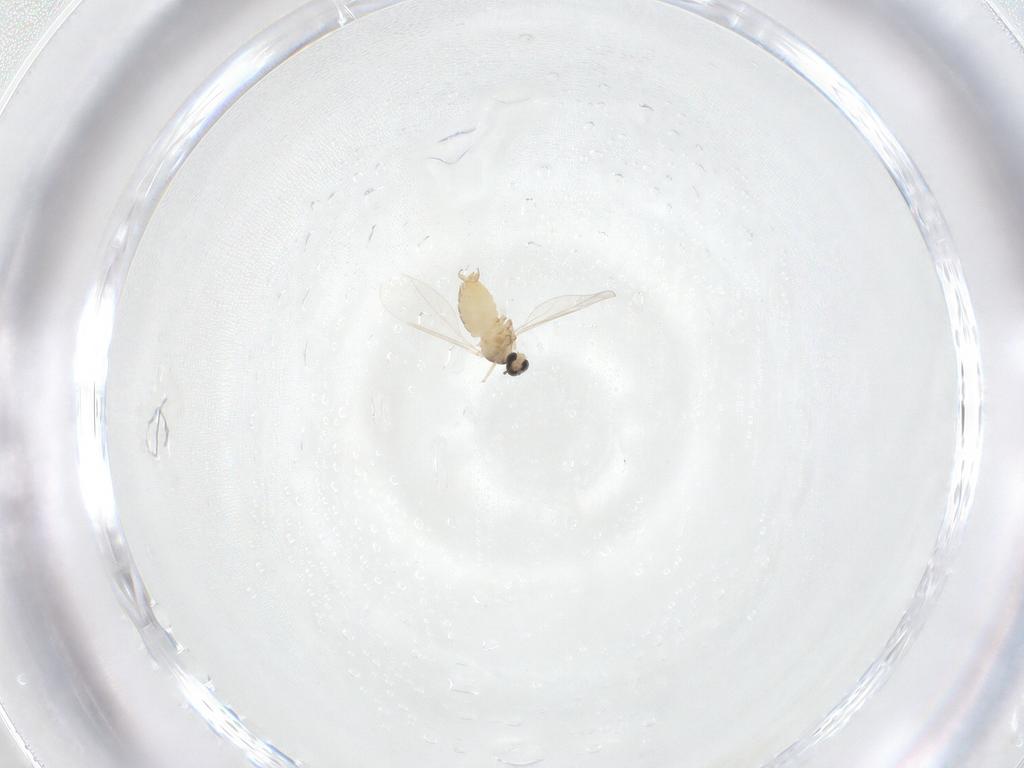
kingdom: Animalia
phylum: Arthropoda
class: Insecta
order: Diptera
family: Cecidomyiidae
